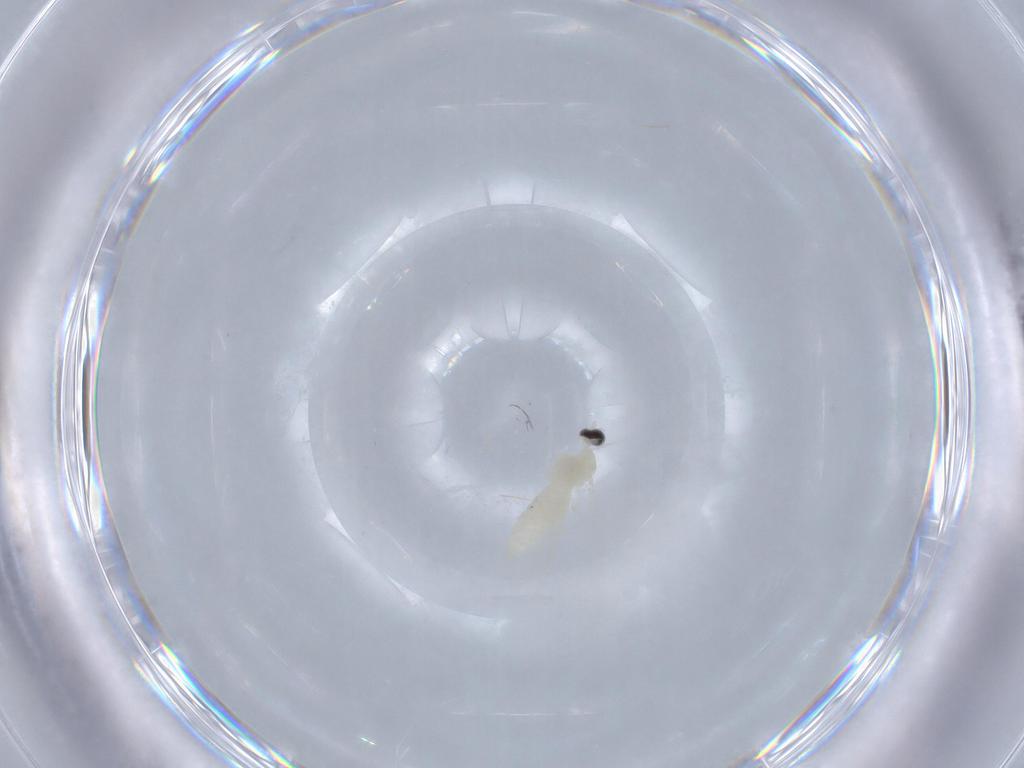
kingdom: Animalia
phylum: Arthropoda
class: Insecta
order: Diptera
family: Cecidomyiidae
